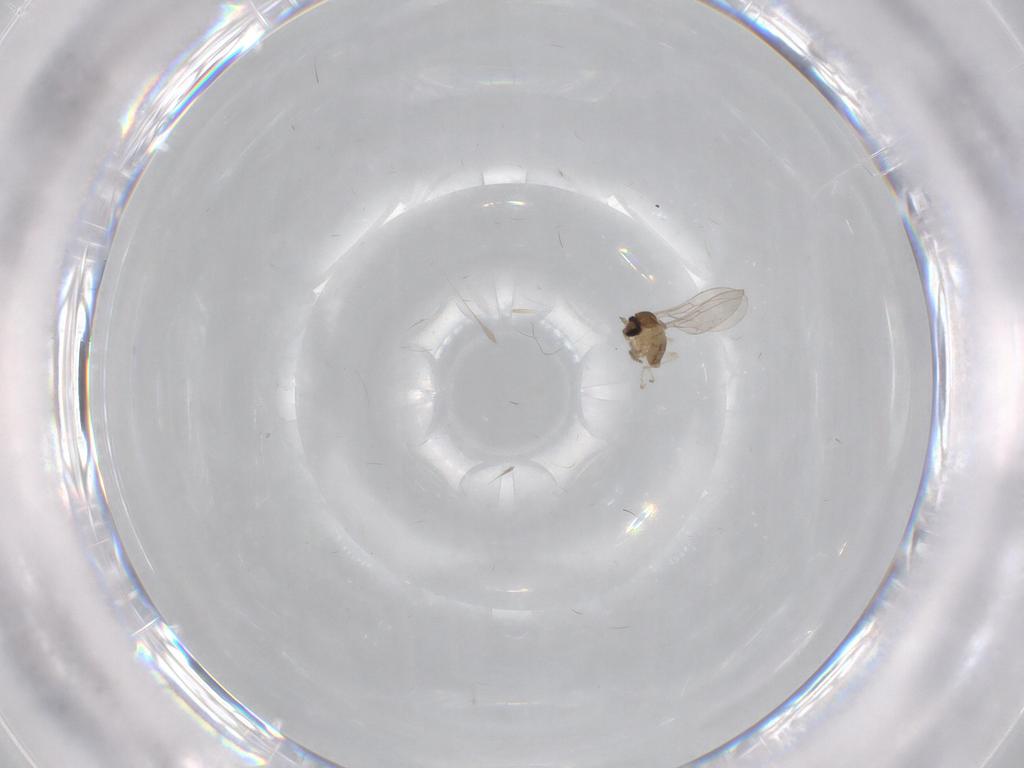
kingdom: Animalia
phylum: Arthropoda
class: Insecta
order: Diptera
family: Cecidomyiidae
